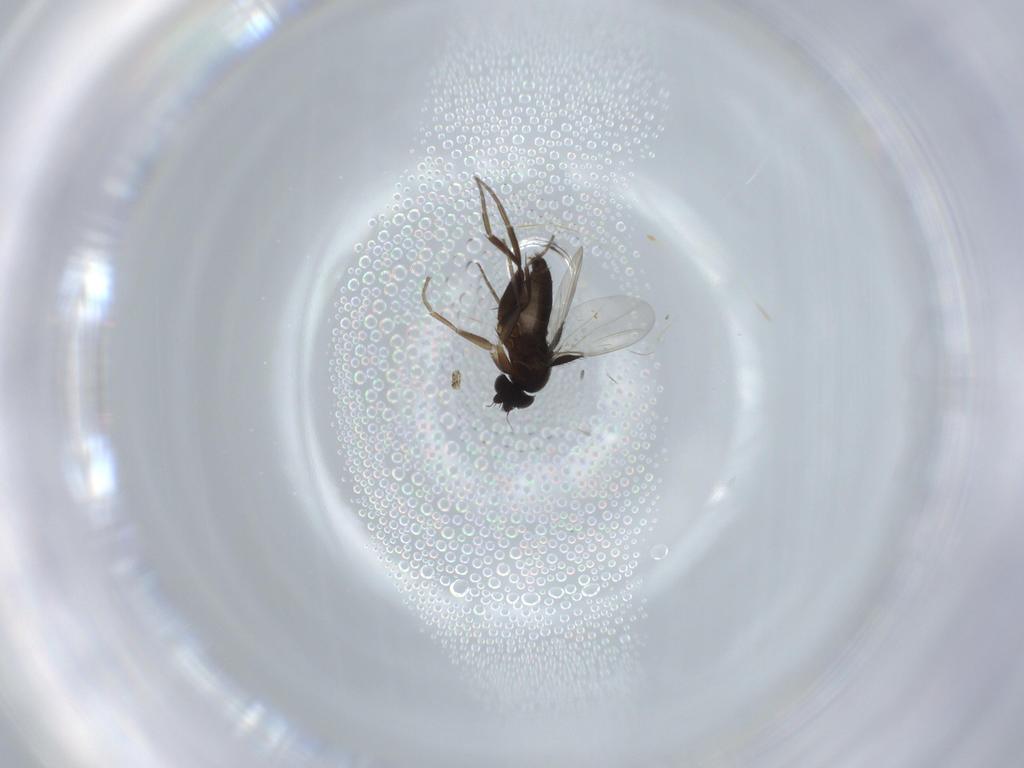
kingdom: Animalia
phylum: Arthropoda
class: Insecta
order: Diptera
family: Phoridae
